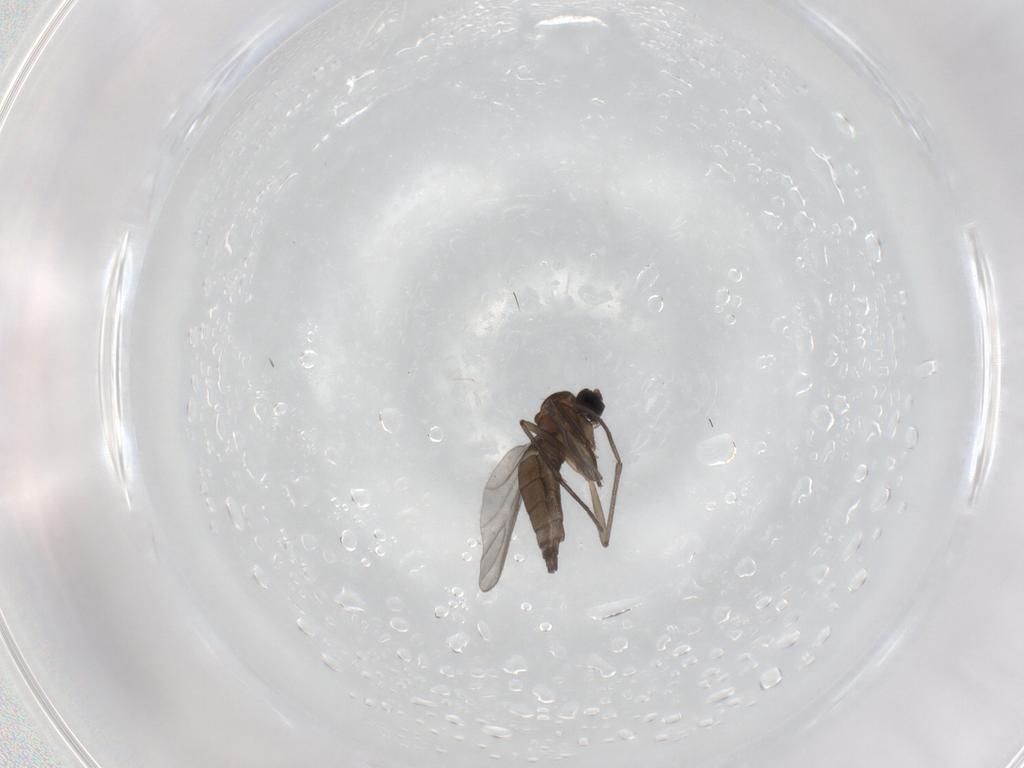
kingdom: Animalia
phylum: Arthropoda
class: Insecta
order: Diptera
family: Sciaridae
